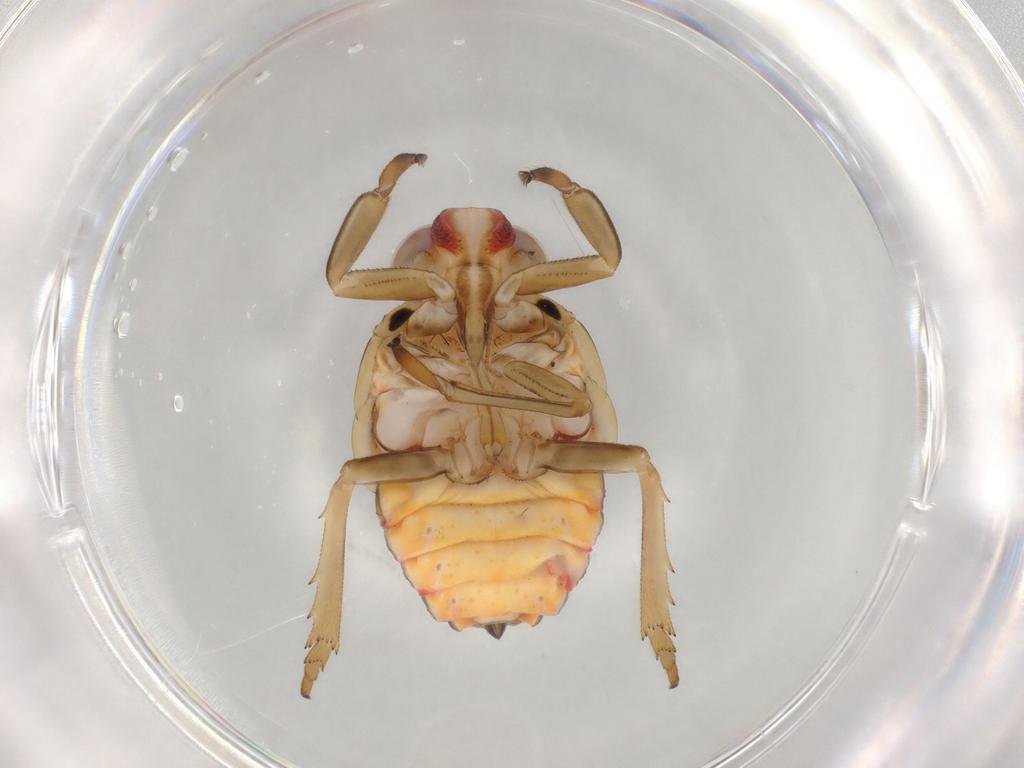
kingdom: Animalia
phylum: Arthropoda
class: Insecta
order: Hemiptera
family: Issidae
